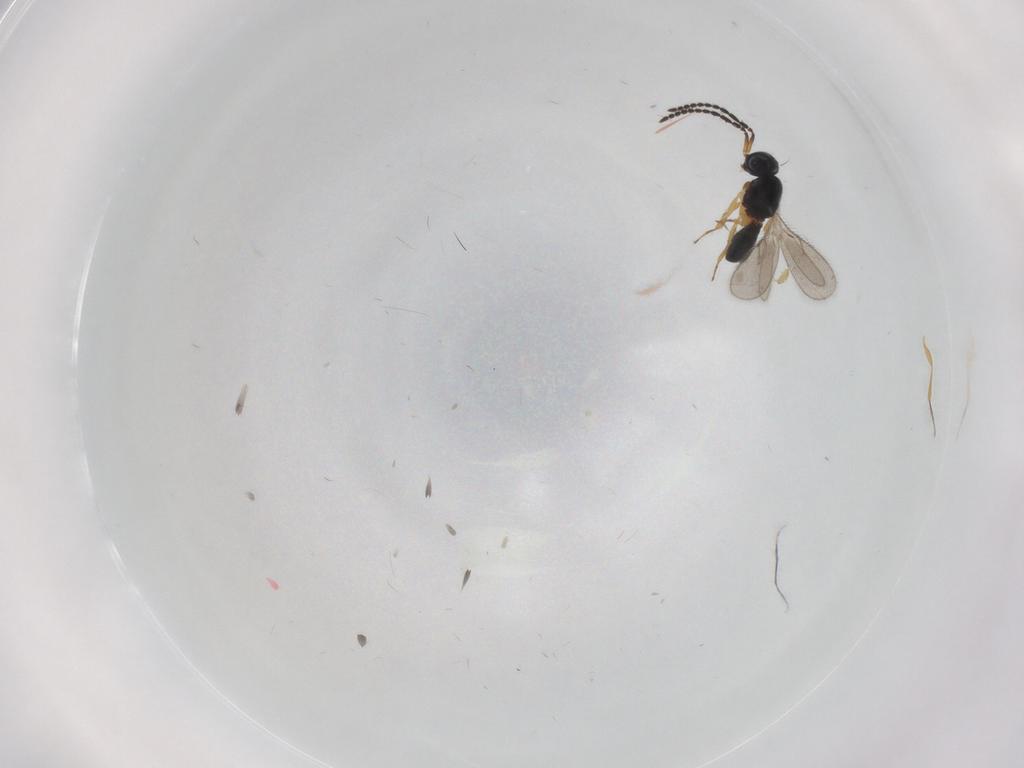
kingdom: Animalia
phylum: Arthropoda
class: Insecta
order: Hymenoptera
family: Scelionidae
